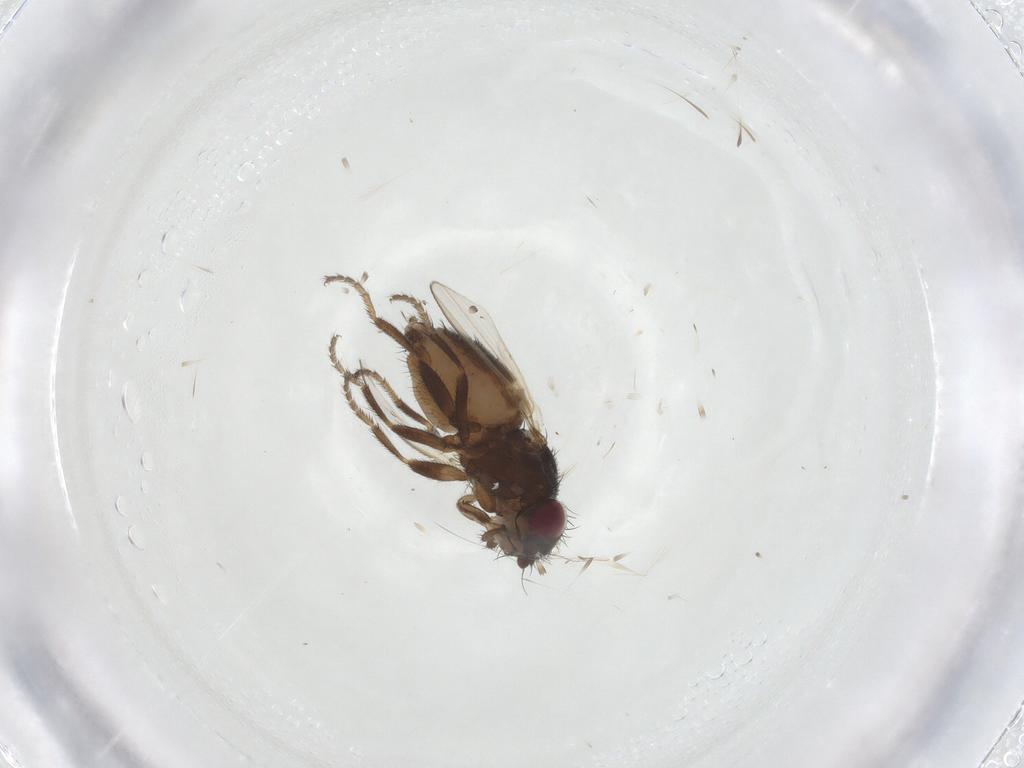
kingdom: Animalia
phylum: Arthropoda
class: Insecta
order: Diptera
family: Milichiidae
